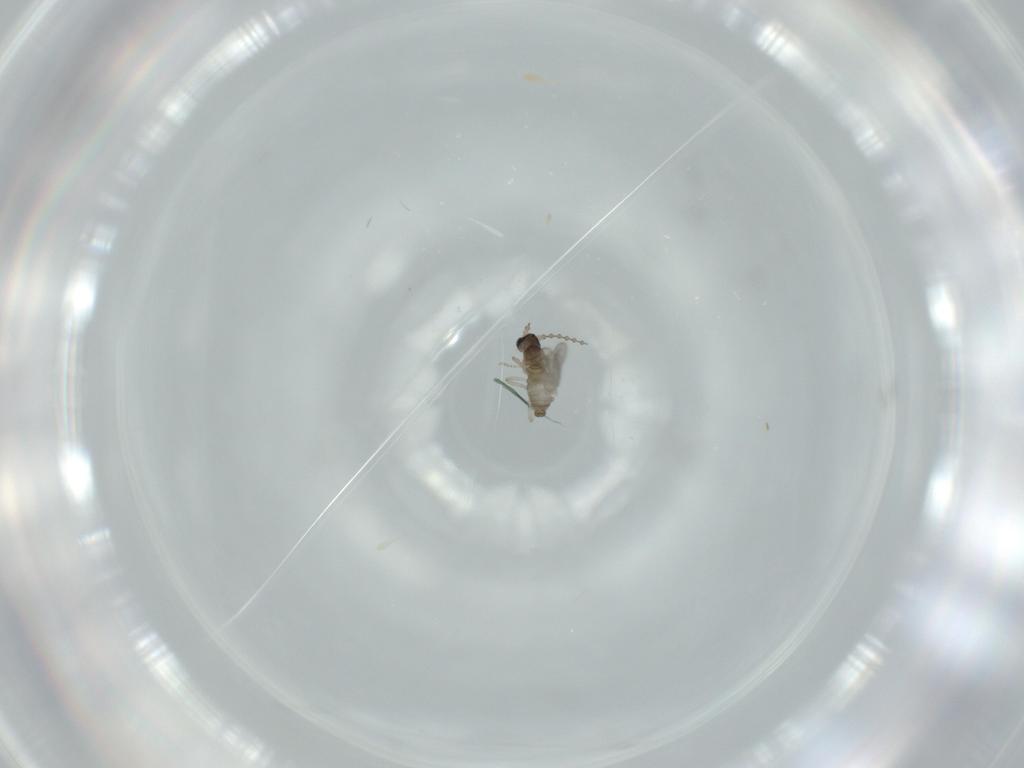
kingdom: Animalia
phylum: Arthropoda
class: Insecta
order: Diptera
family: Cecidomyiidae
